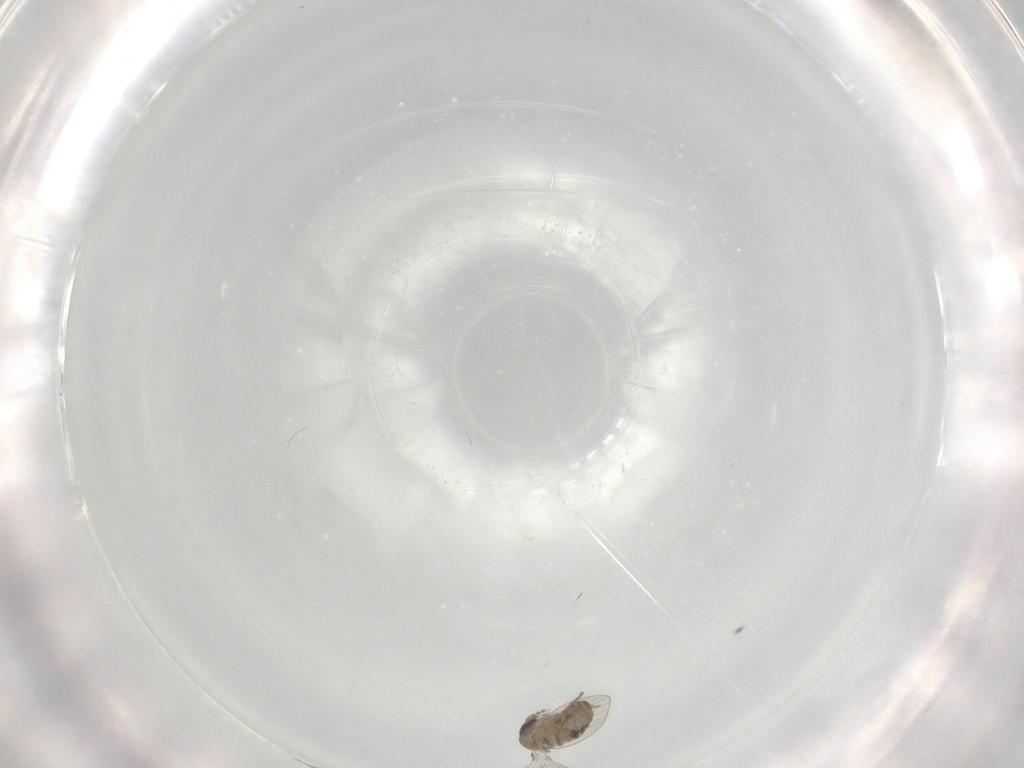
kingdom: Animalia
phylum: Arthropoda
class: Insecta
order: Diptera
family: Psychodidae
